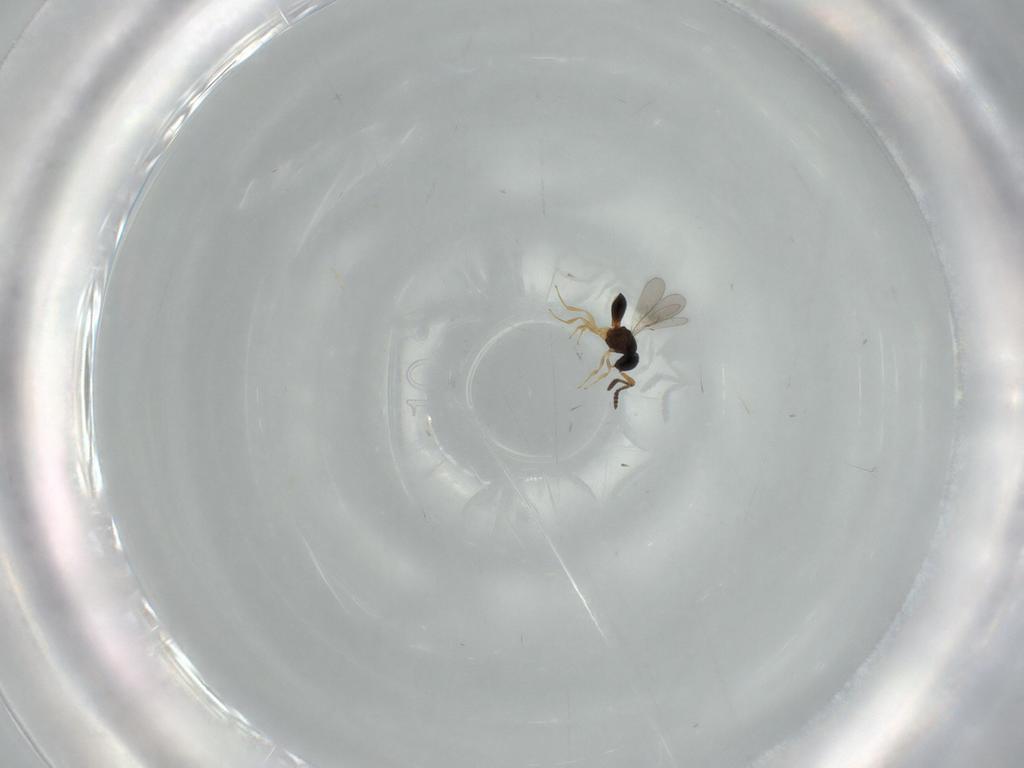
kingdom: Animalia
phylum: Arthropoda
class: Insecta
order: Hymenoptera
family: Scelionidae
